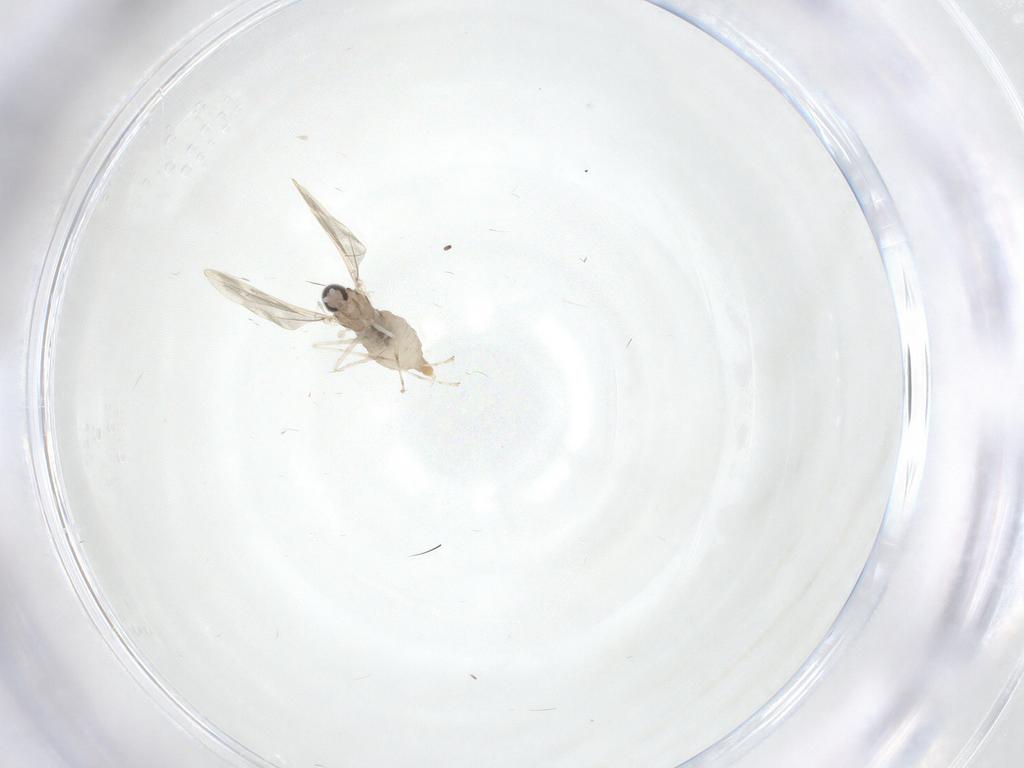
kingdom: Animalia
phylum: Arthropoda
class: Insecta
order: Diptera
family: Cecidomyiidae
